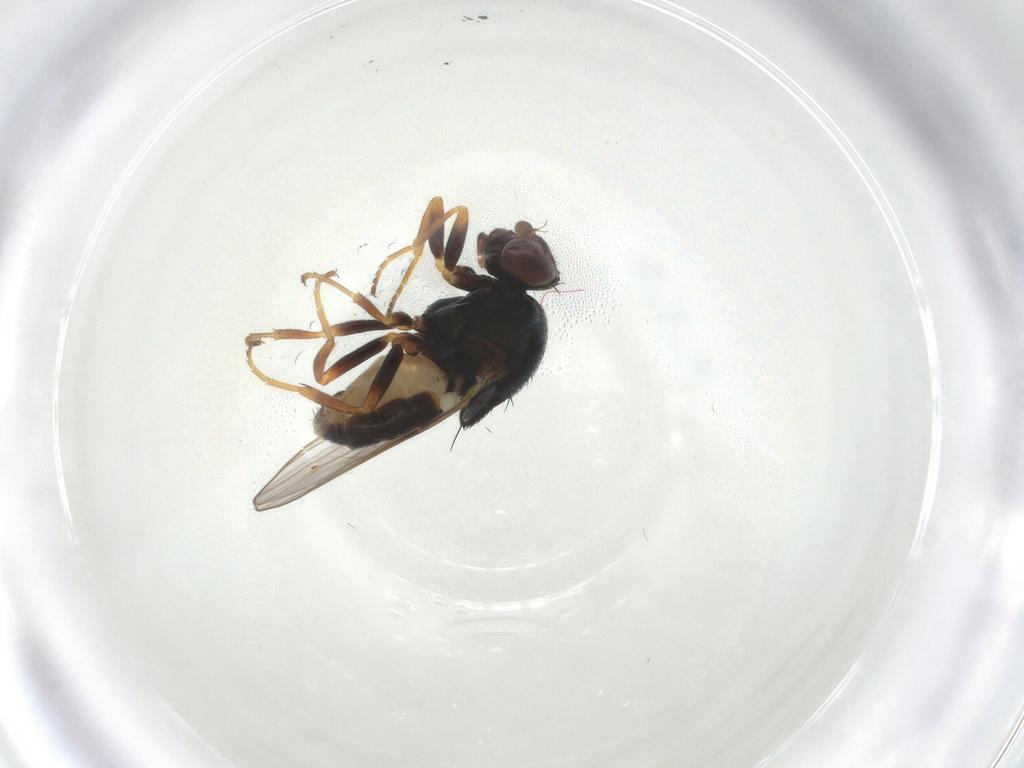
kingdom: Animalia
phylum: Arthropoda
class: Insecta
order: Diptera
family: Chloropidae
